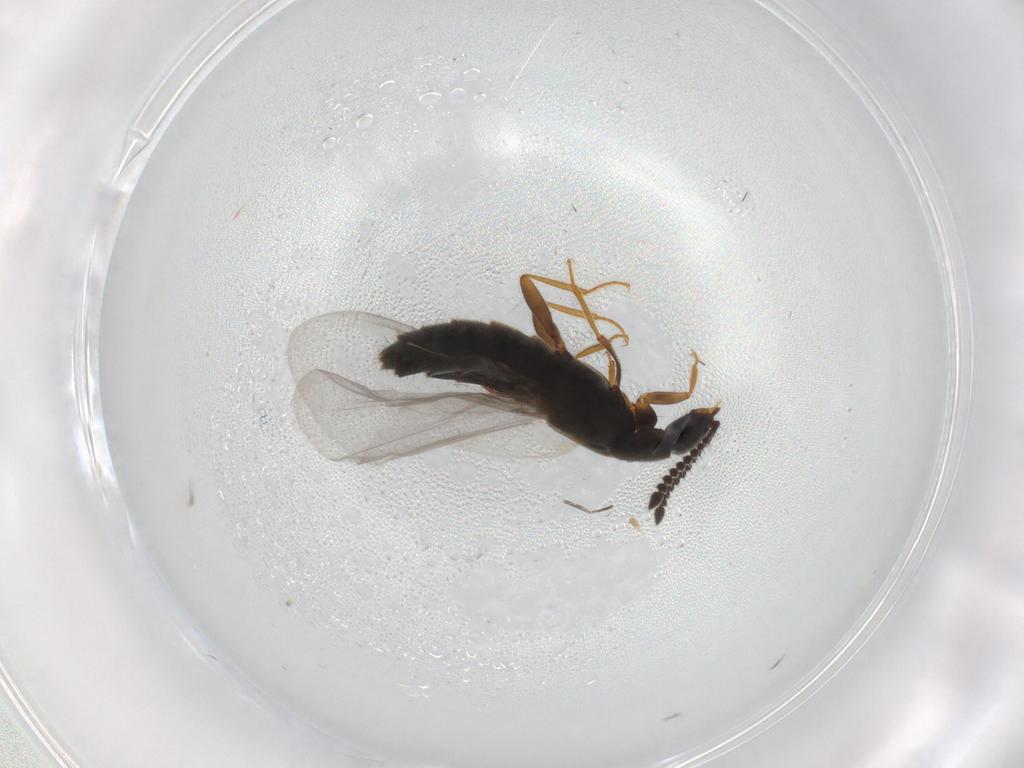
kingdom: Animalia
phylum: Arthropoda
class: Insecta
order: Coleoptera
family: Staphylinidae
